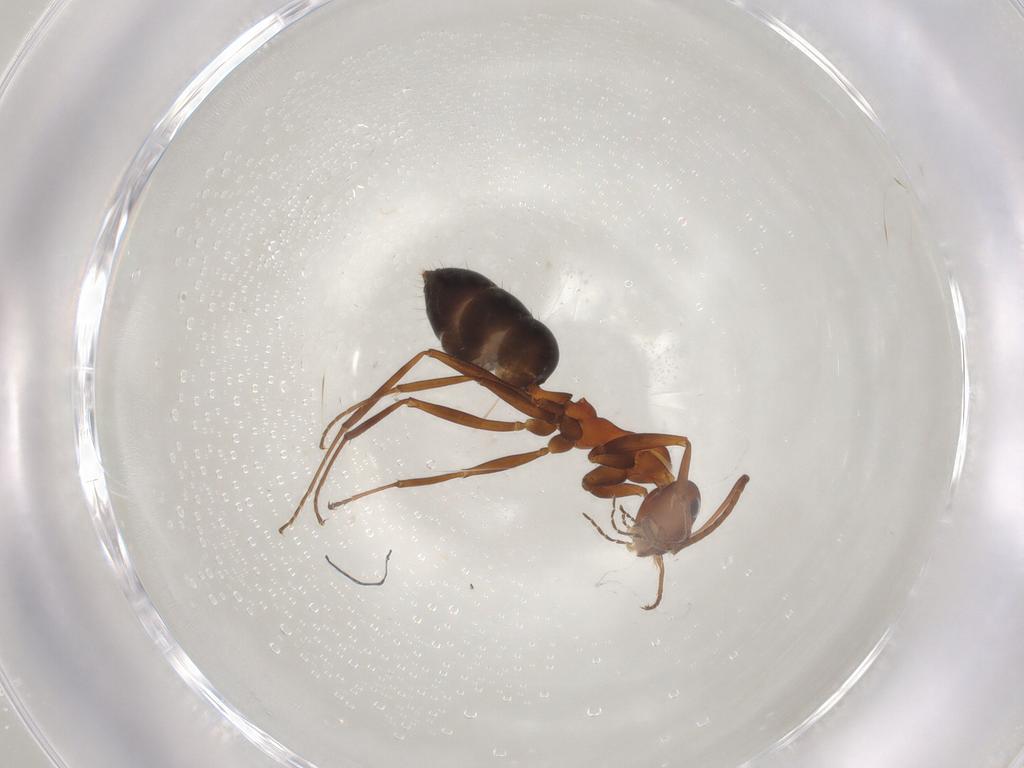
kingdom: Animalia
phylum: Arthropoda
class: Insecta
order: Hymenoptera
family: Formicidae
